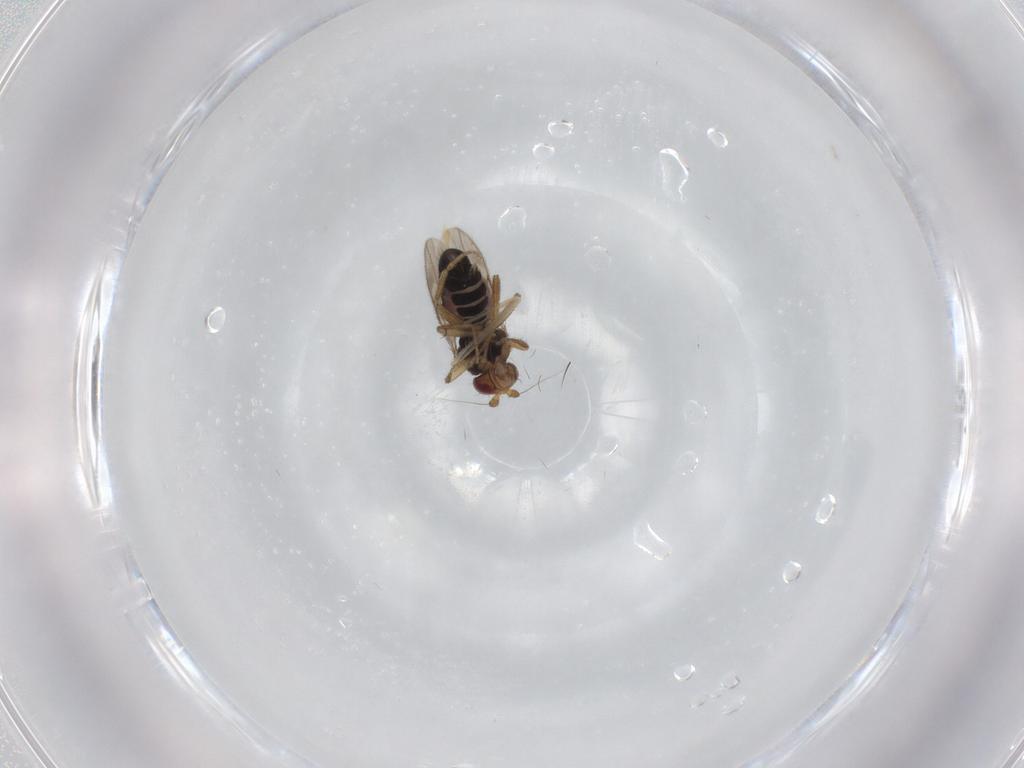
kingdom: Animalia
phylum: Arthropoda
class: Insecta
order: Diptera
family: Sphaeroceridae
